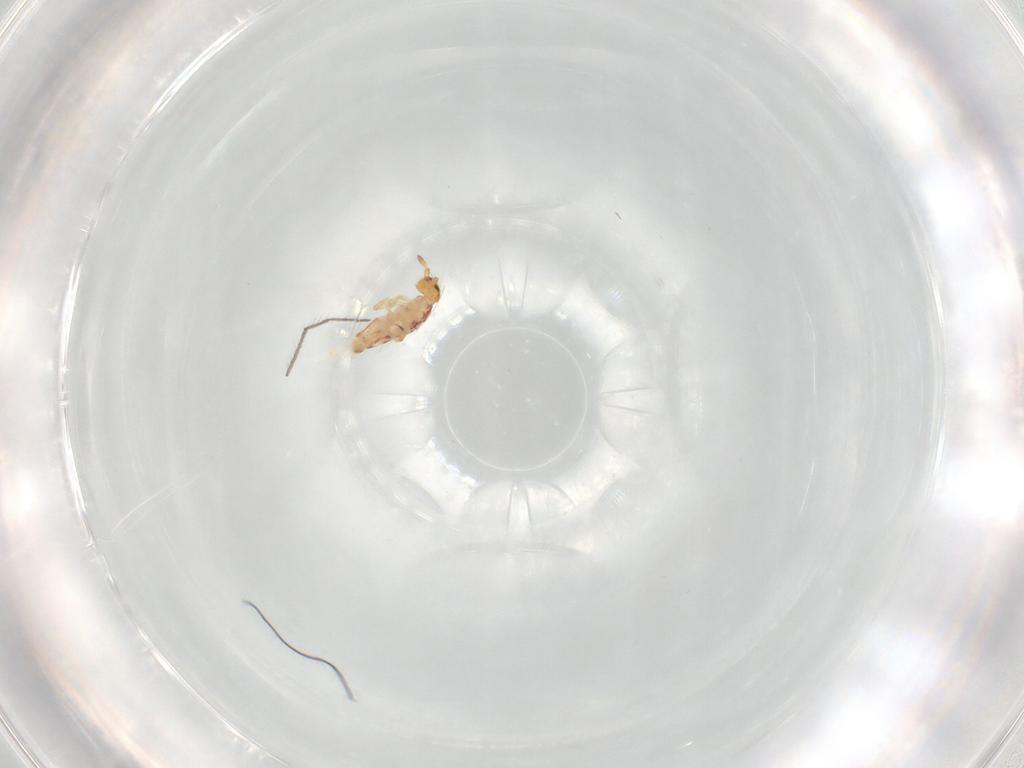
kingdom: Animalia
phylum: Arthropoda
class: Collembola
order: Entomobryomorpha
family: Entomobryidae
